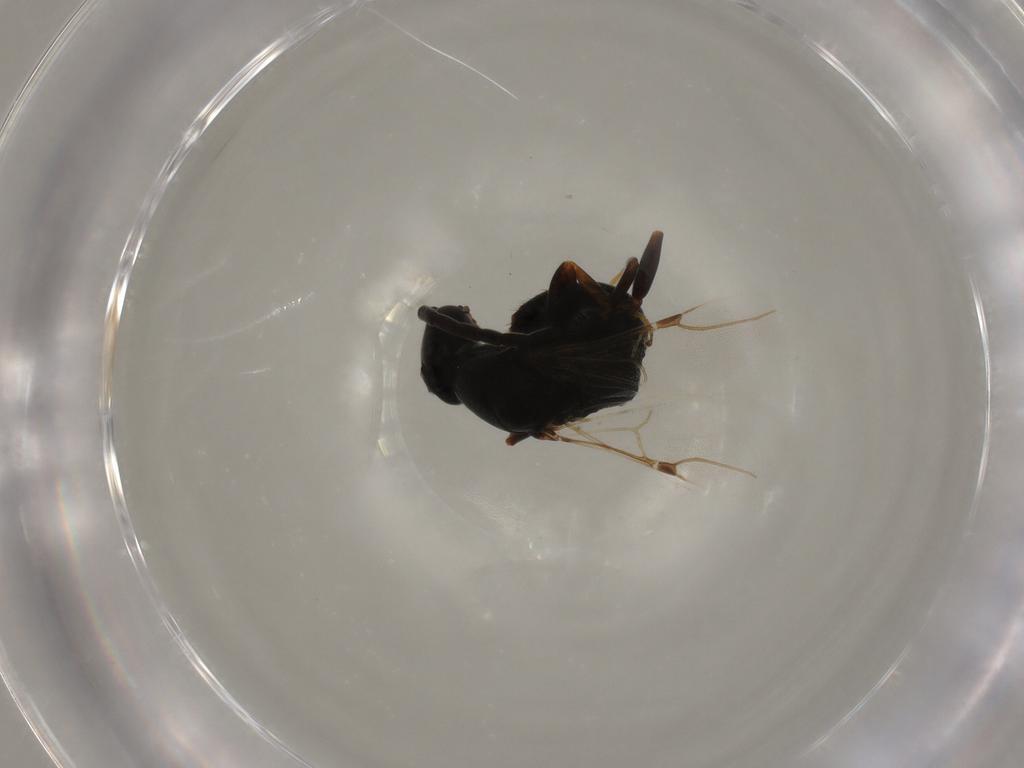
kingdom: Animalia
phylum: Arthropoda
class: Insecta
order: Hymenoptera
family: Bethylidae
